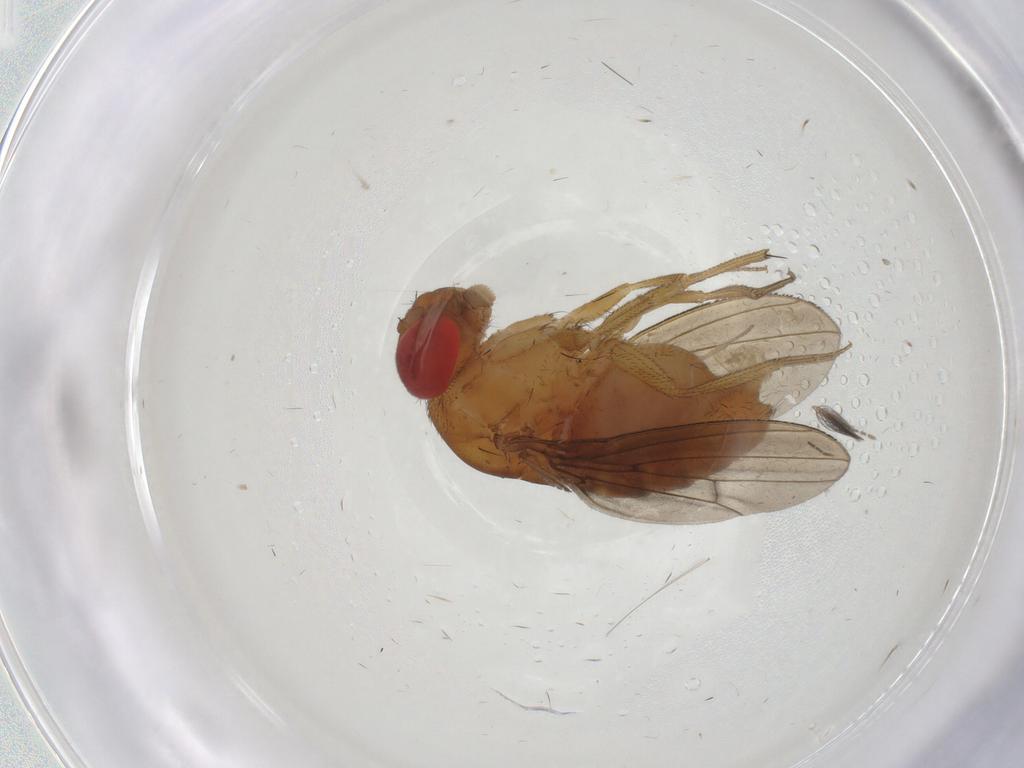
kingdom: Animalia
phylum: Arthropoda
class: Insecta
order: Diptera
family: Drosophilidae
